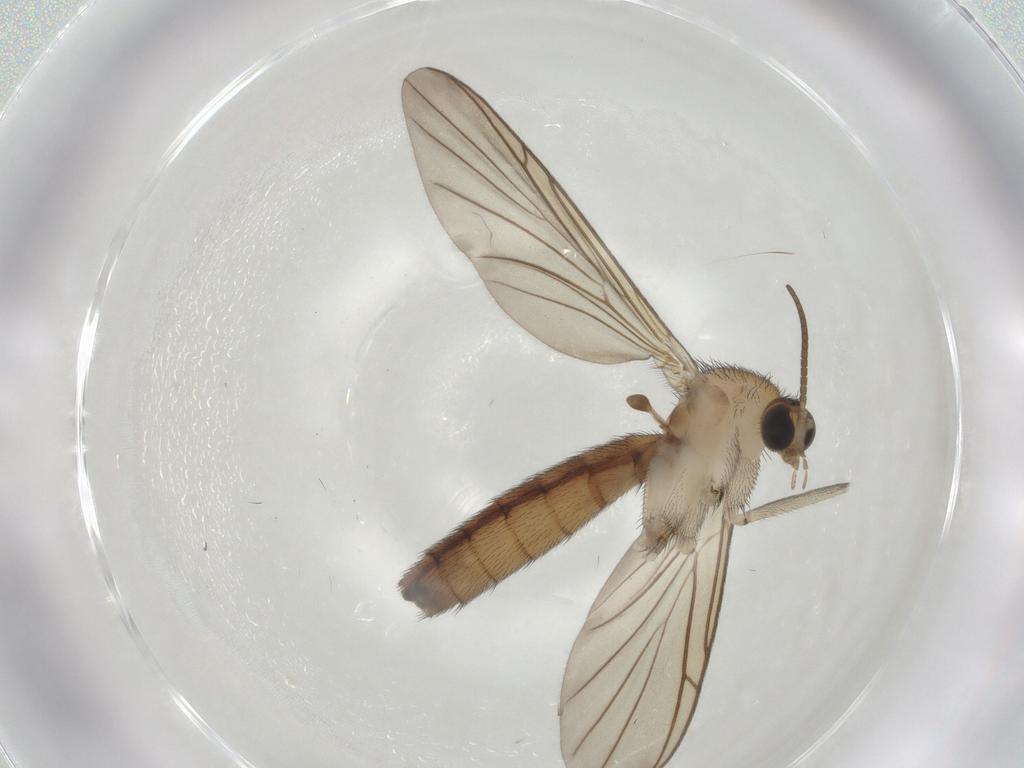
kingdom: Animalia
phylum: Arthropoda
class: Insecta
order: Diptera
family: Keroplatidae
